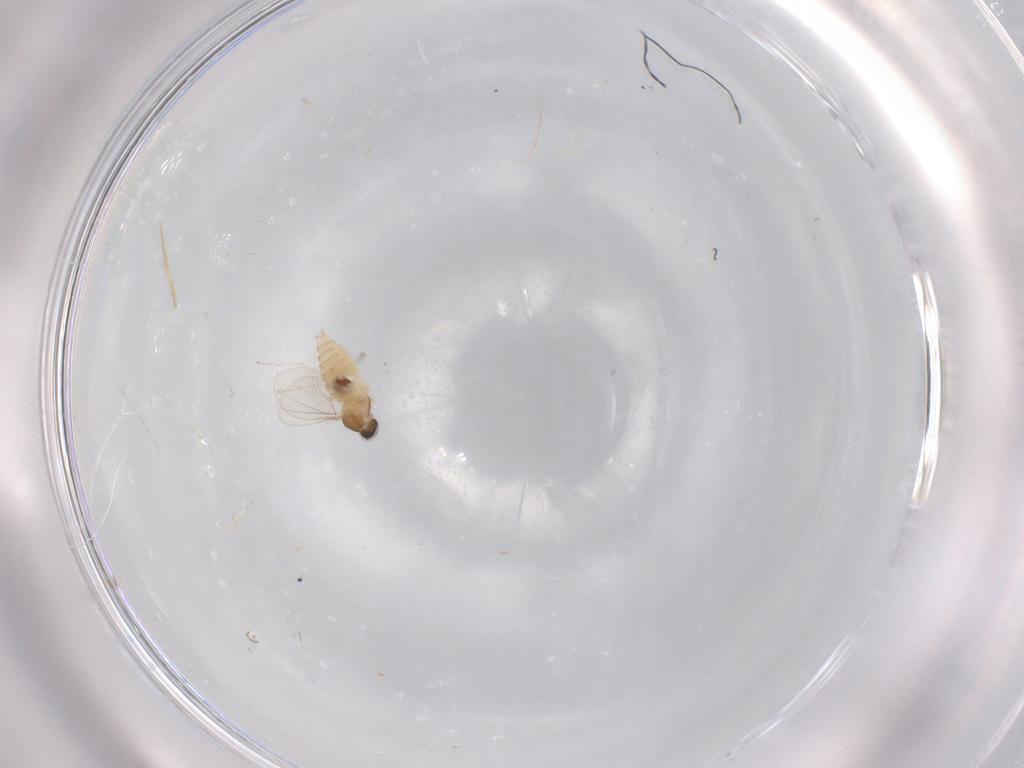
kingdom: Animalia
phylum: Arthropoda
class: Insecta
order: Diptera
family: Cecidomyiidae
